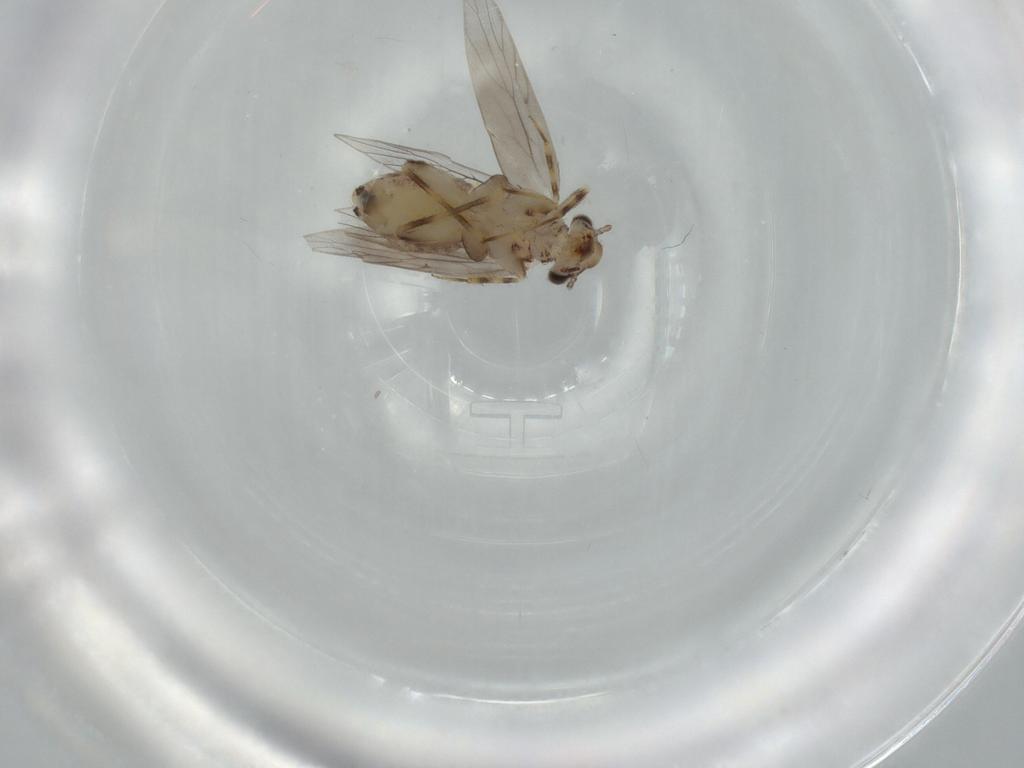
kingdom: Animalia
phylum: Arthropoda
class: Insecta
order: Psocodea
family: Lepidopsocidae
